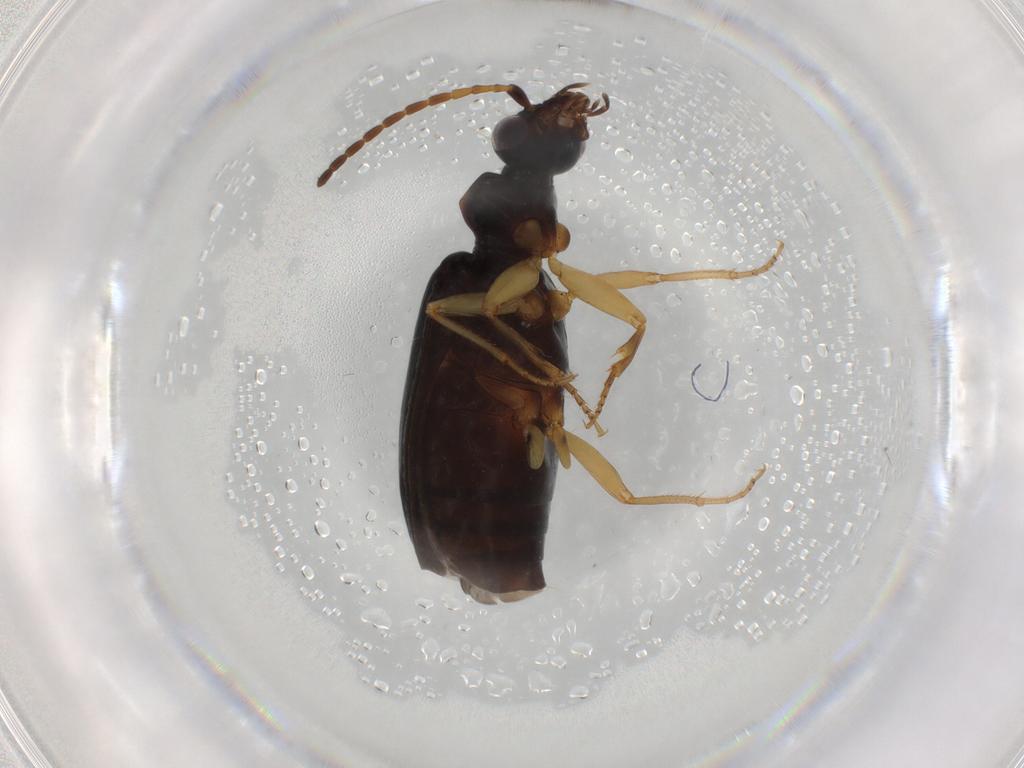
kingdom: Animalia
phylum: Arthropoda
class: Insecta
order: Coleoptera
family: Carabidae
